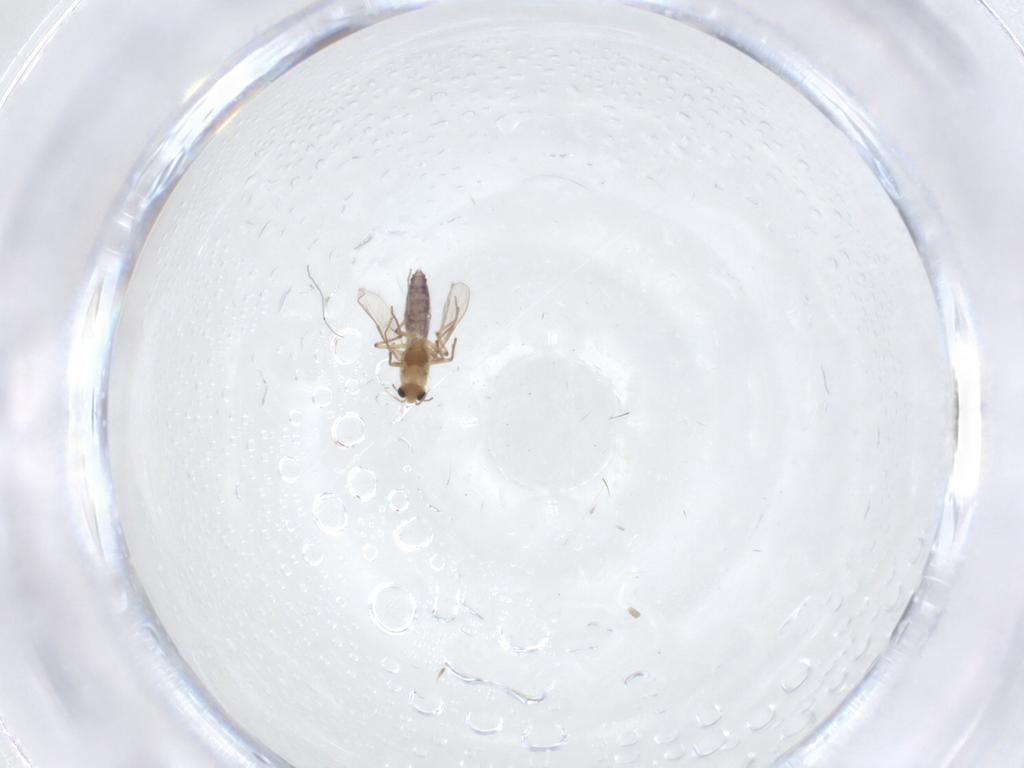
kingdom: Animalia
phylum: Arthropoda
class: Insecta
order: Diptera
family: Chironomidae
